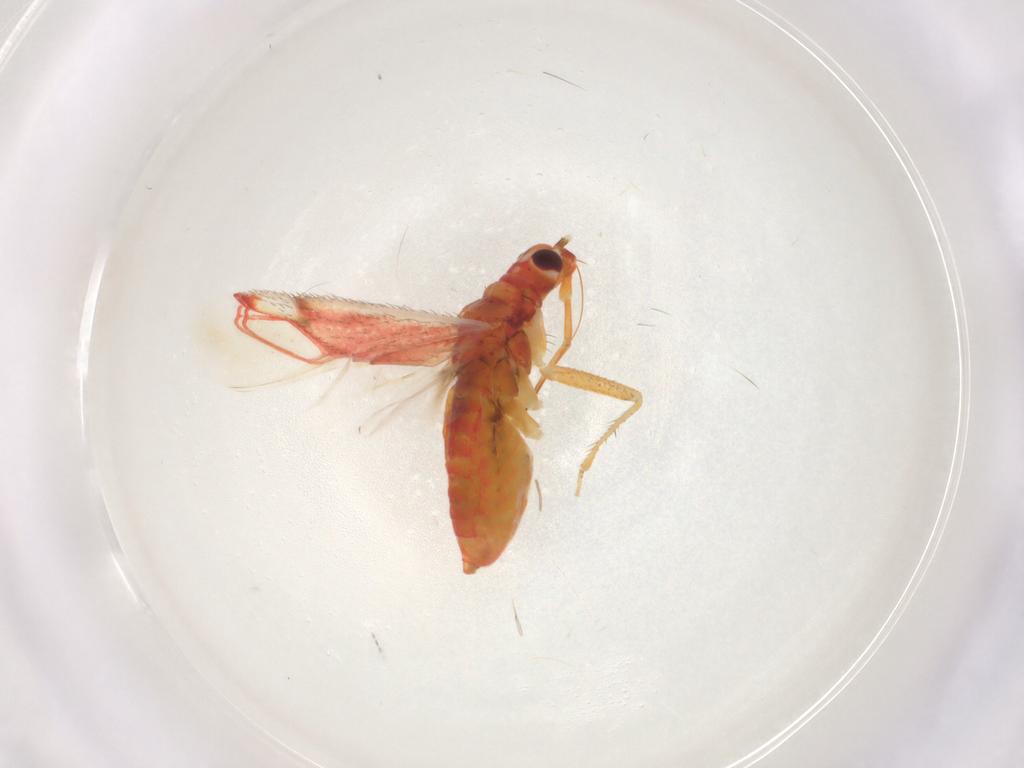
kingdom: Animalia
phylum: Arthropoda
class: Insecta
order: Hemiptera
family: Miridae
